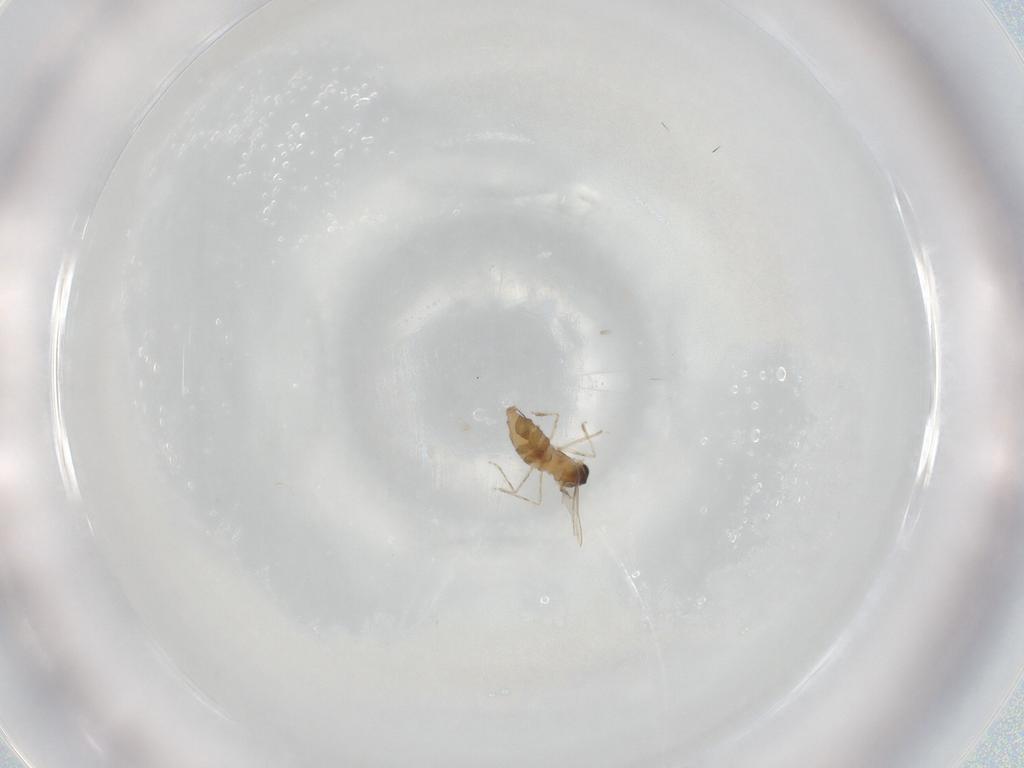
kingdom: Animalia
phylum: Arthropoda
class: Insecta
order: Diptera
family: Cecidomyiidae
